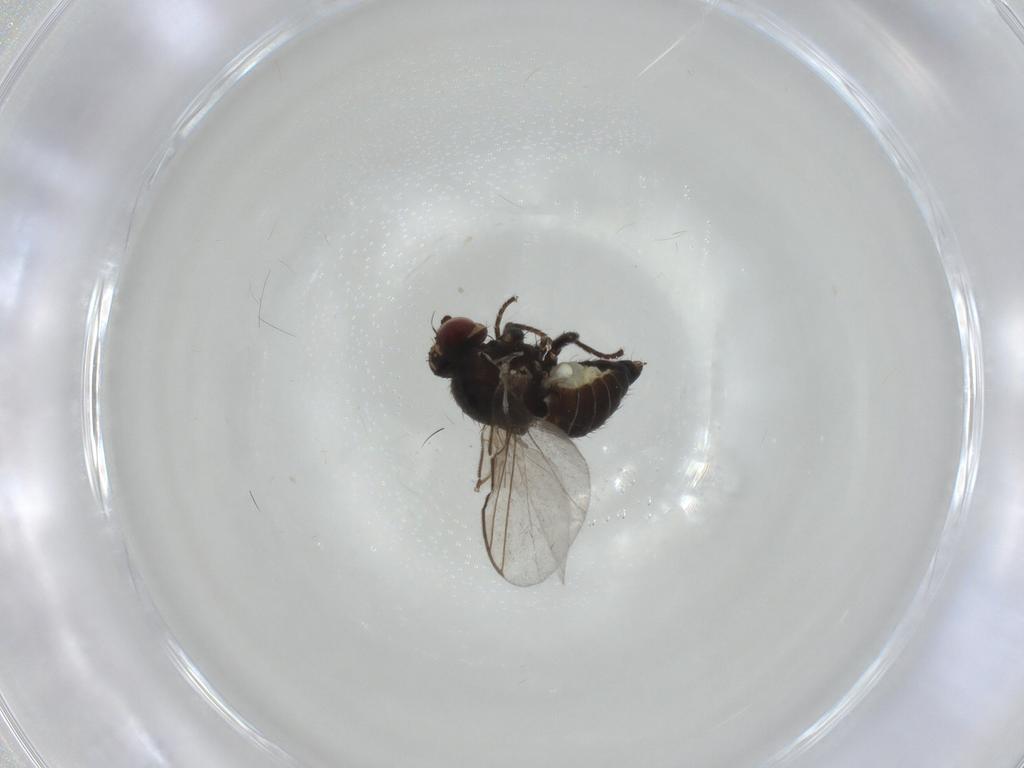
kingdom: Animalia
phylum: Arthropoda
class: Insecta
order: Diptera
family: Agromyzidae
